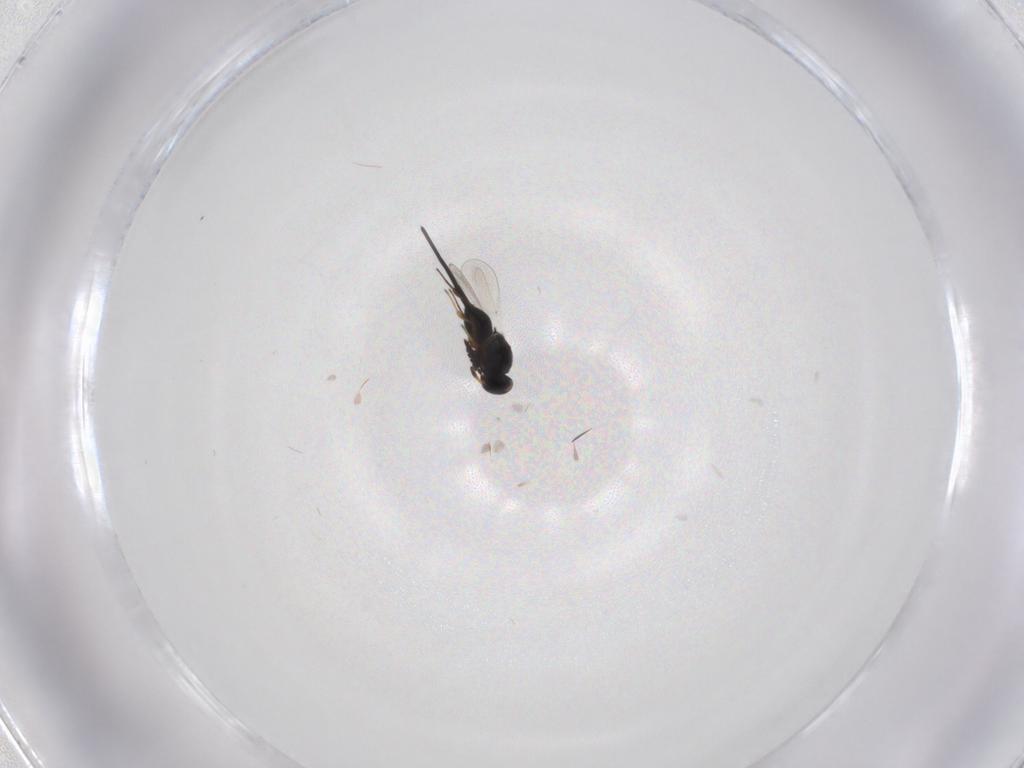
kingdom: Animalia
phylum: Arthropoda
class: Insecta
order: Hymenoptera
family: Platygastridae
